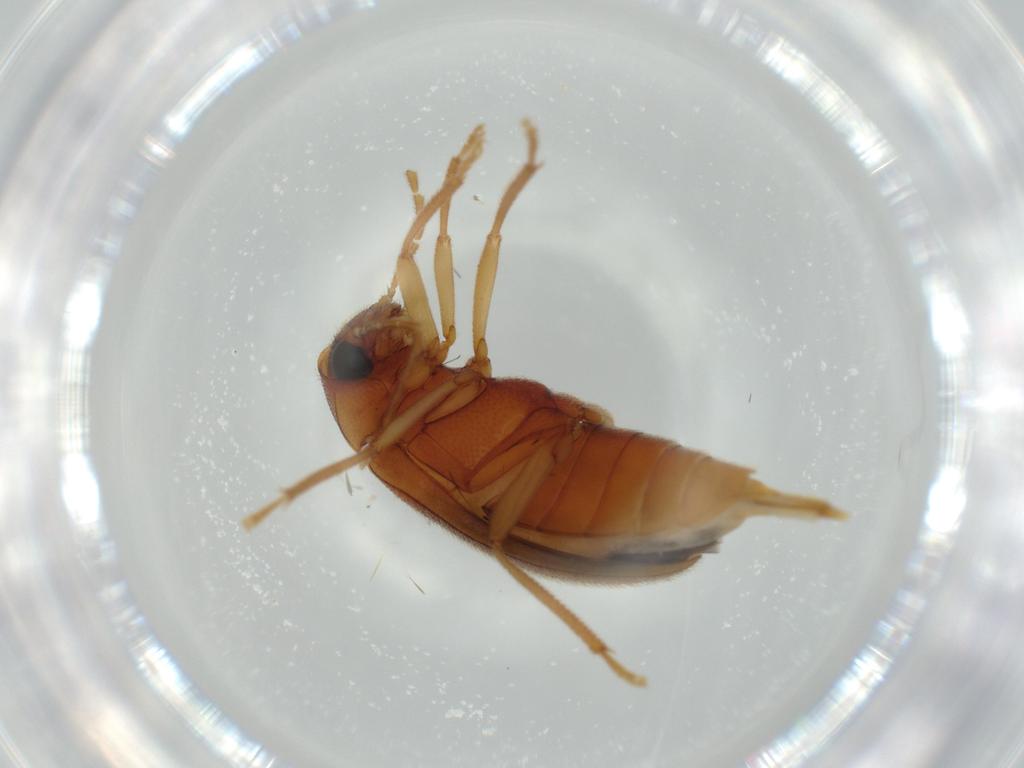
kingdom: Animalia
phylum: Arthropoda
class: Insecta
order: Coleoptera
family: Ptilodactylidae
